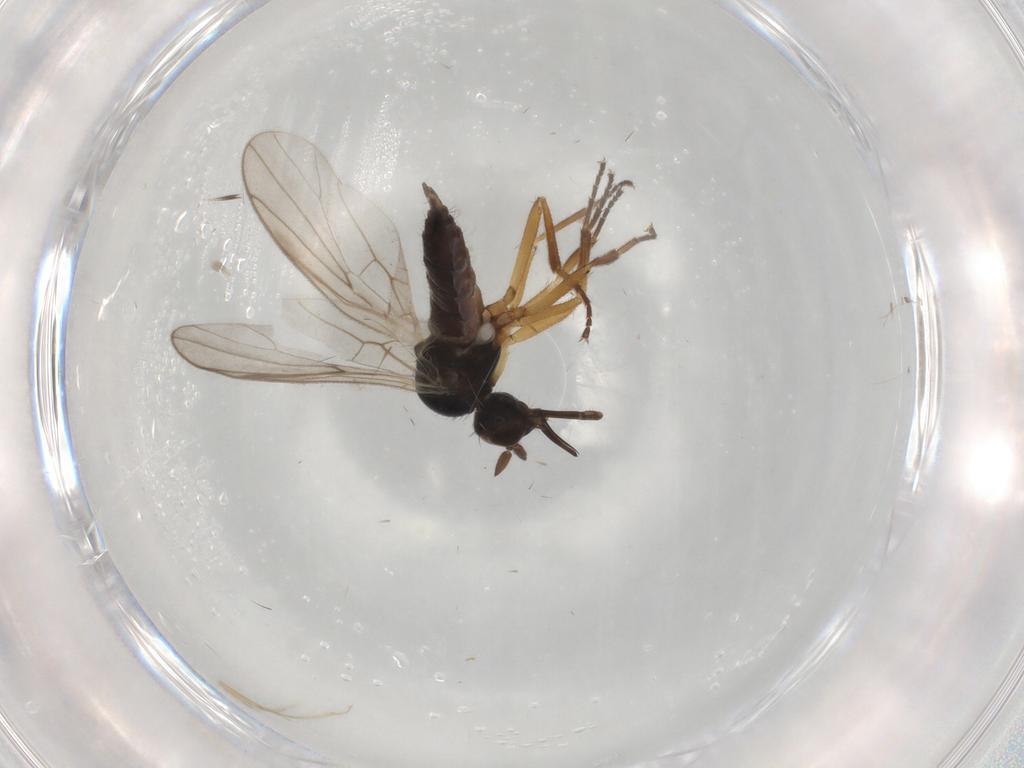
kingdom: Animalia
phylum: Arthropoda
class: Insecta
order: Diptera
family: Hybotidae
